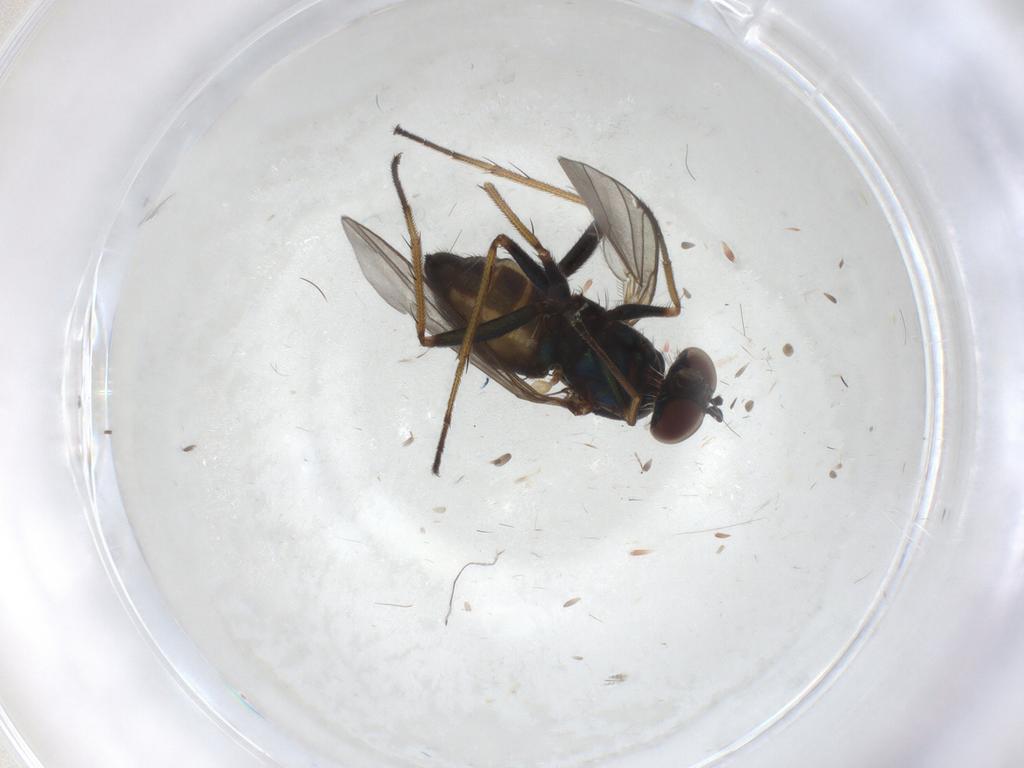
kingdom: Animalia
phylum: Arthropoda
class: Insecta
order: Diptera
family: Dolichopodidae
